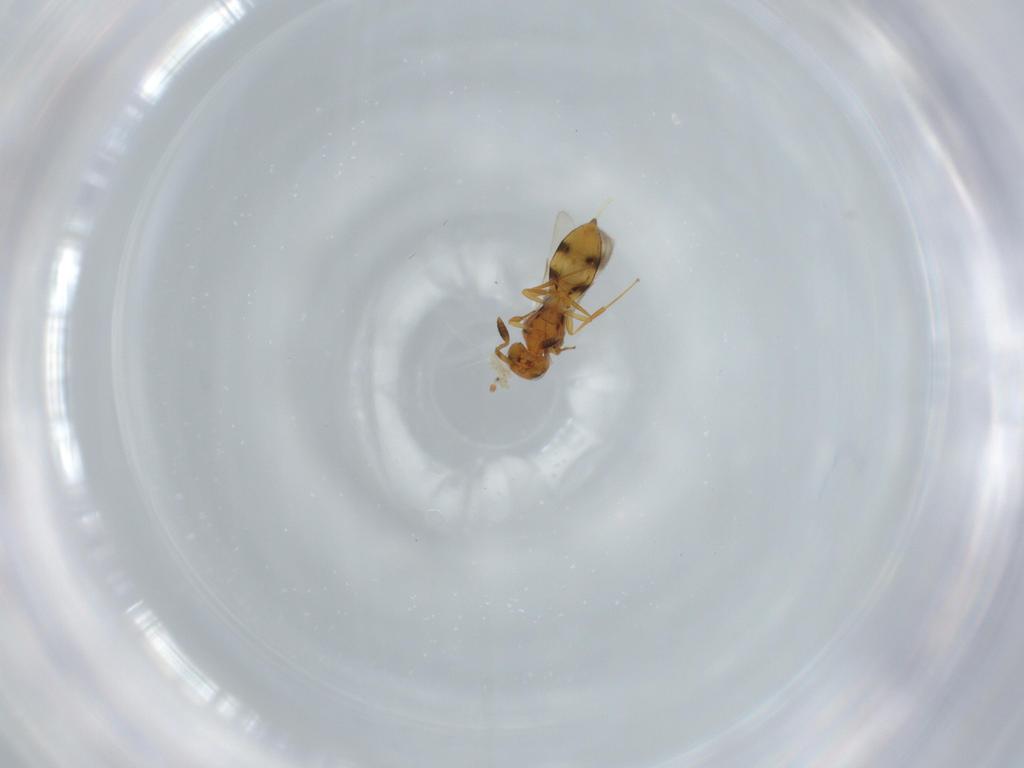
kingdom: Animalia
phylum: Arthropoda
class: Insecta
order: Hymenoptera
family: Scelionidae
